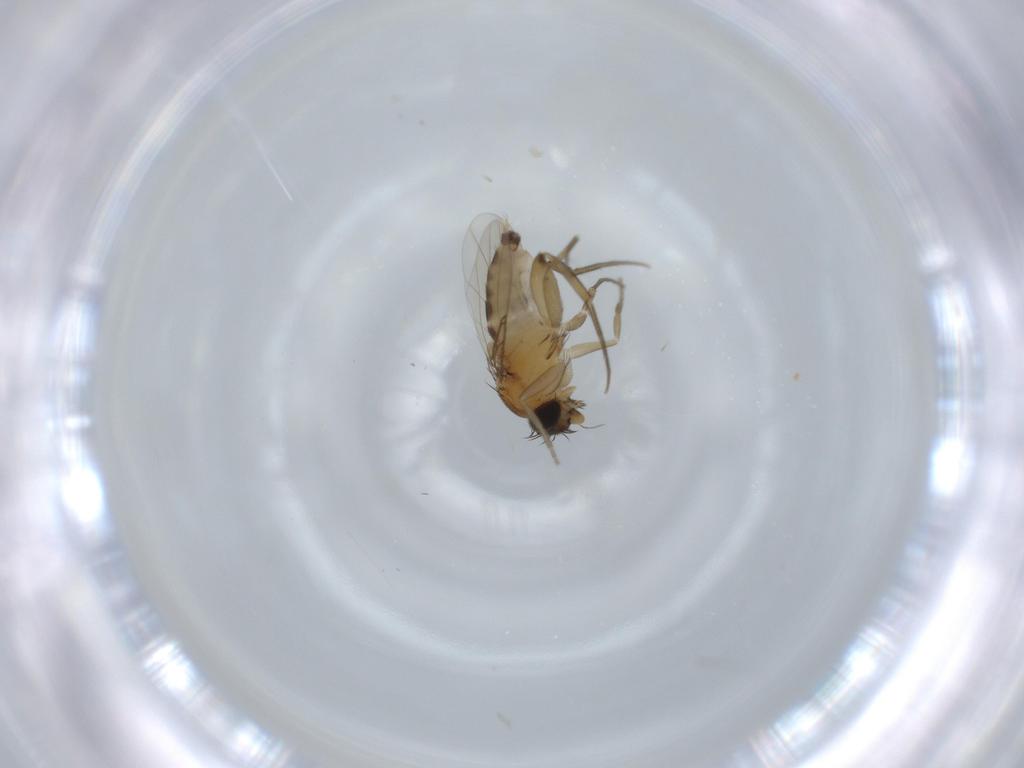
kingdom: Animalia
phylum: Arthropoda
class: Insecta
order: Diptera
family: Phoridae
